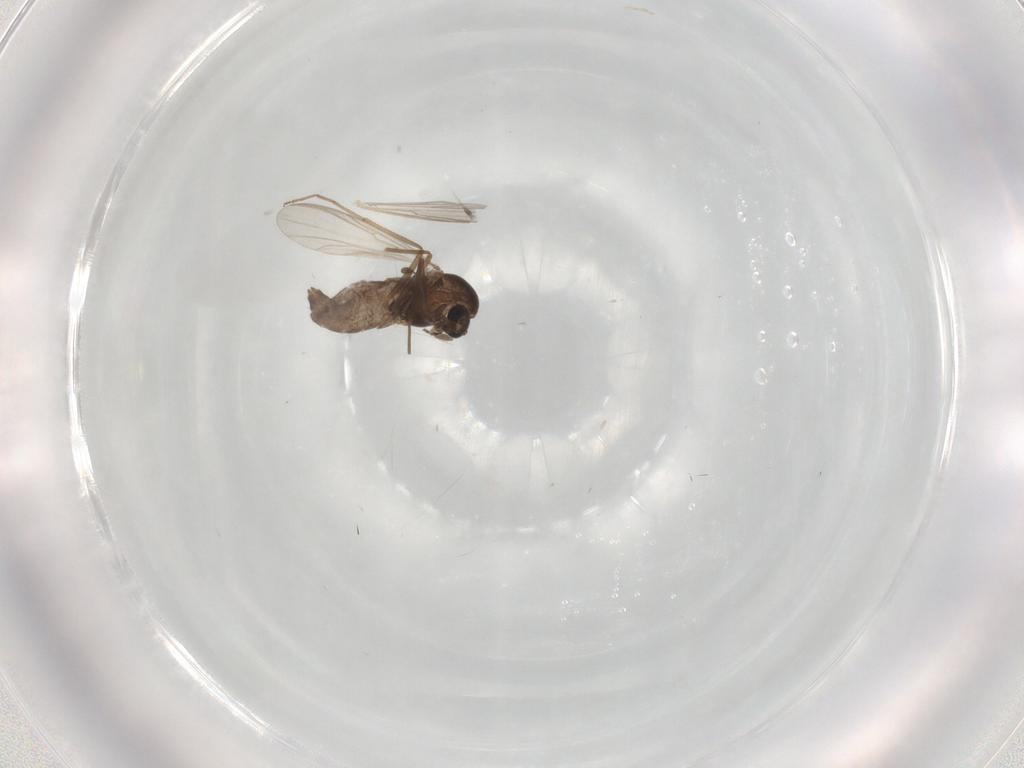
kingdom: Animalia
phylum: Arthropoda
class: Insecta
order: Diptera
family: Tabanidae
